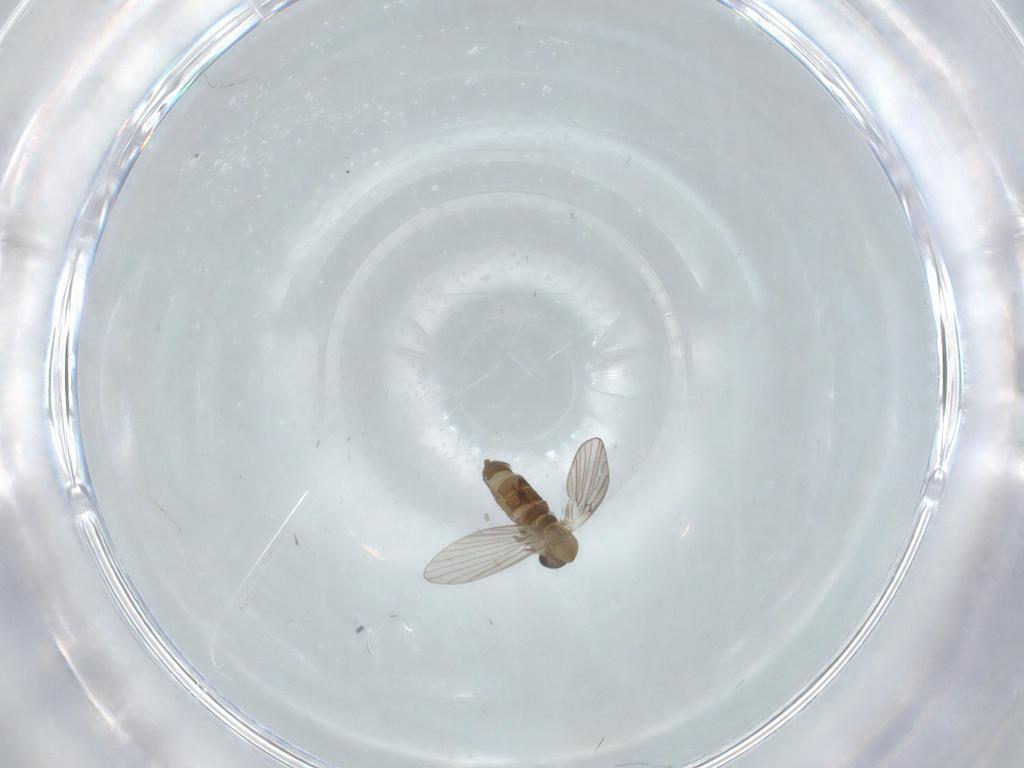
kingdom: Animalia
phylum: Arthropoda
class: Insecta
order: Diptera
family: Psychodidae
